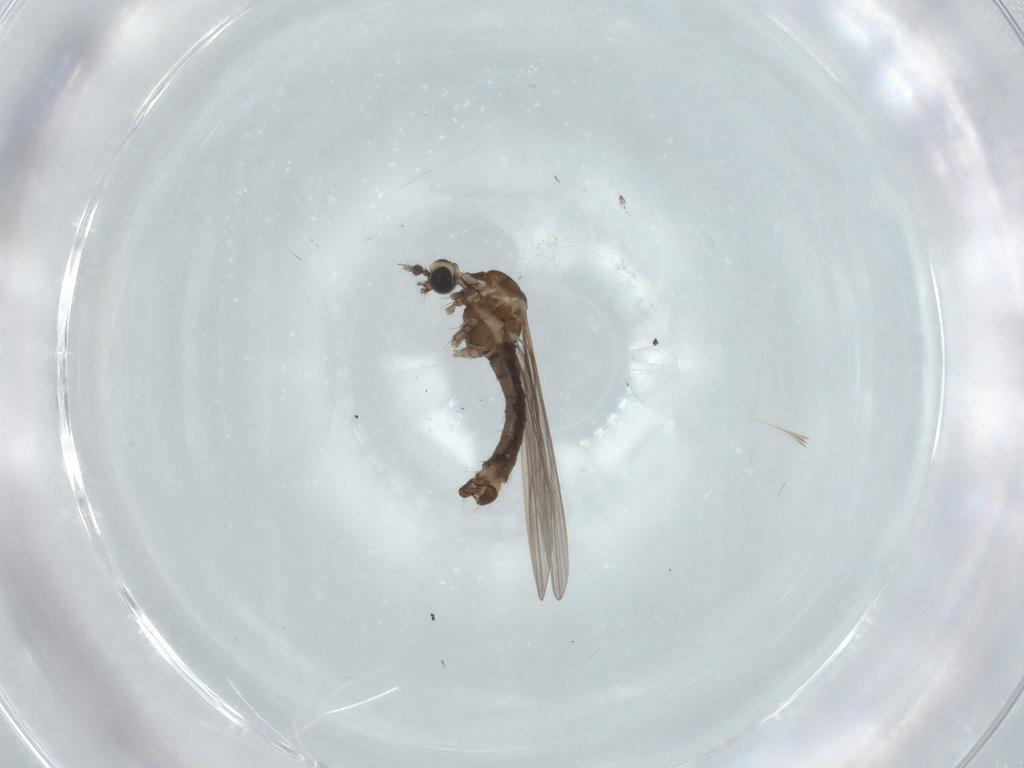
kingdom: Animalia
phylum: Arthropoda
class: Insecta
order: Diptera
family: Limoniidae
